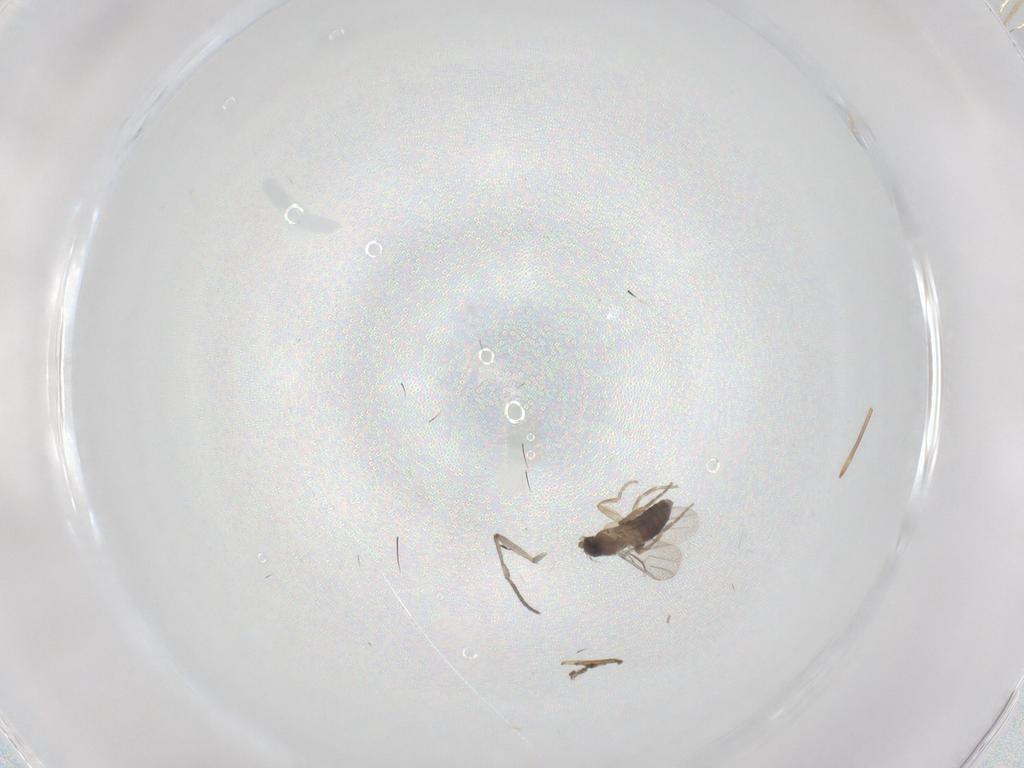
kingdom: Animalia
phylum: Arthropoda
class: Insecta
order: Diptera
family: Sciaridae
